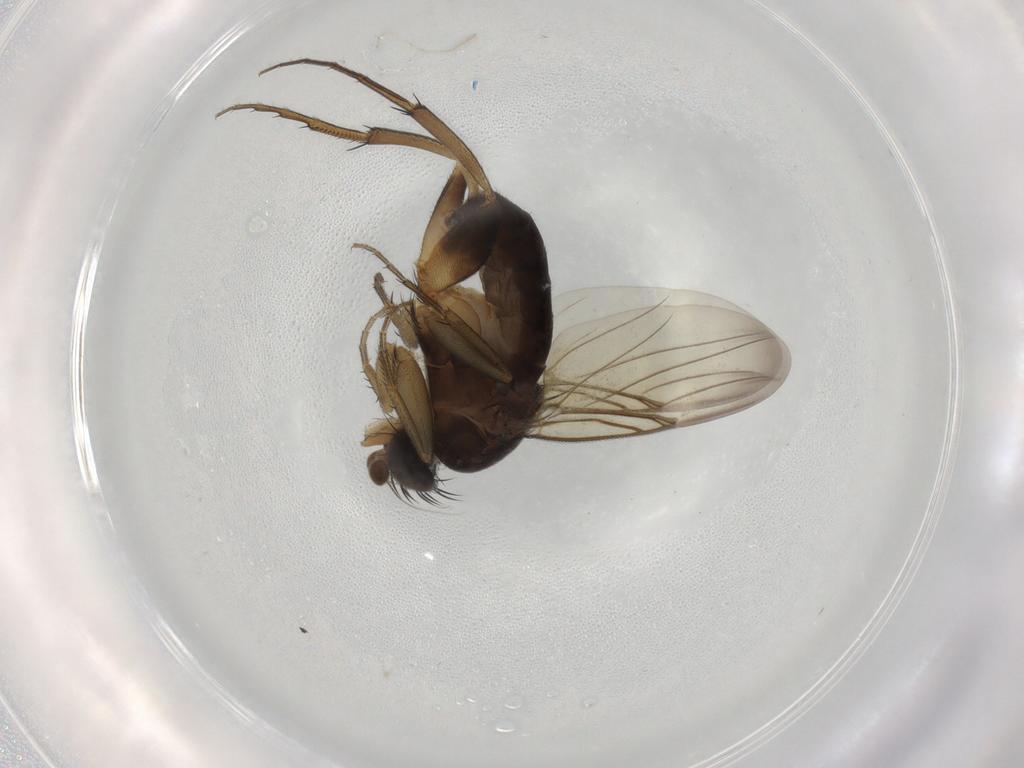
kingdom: Animalia
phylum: Arthropoda
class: Insecta
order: Diptera
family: Phoridae
